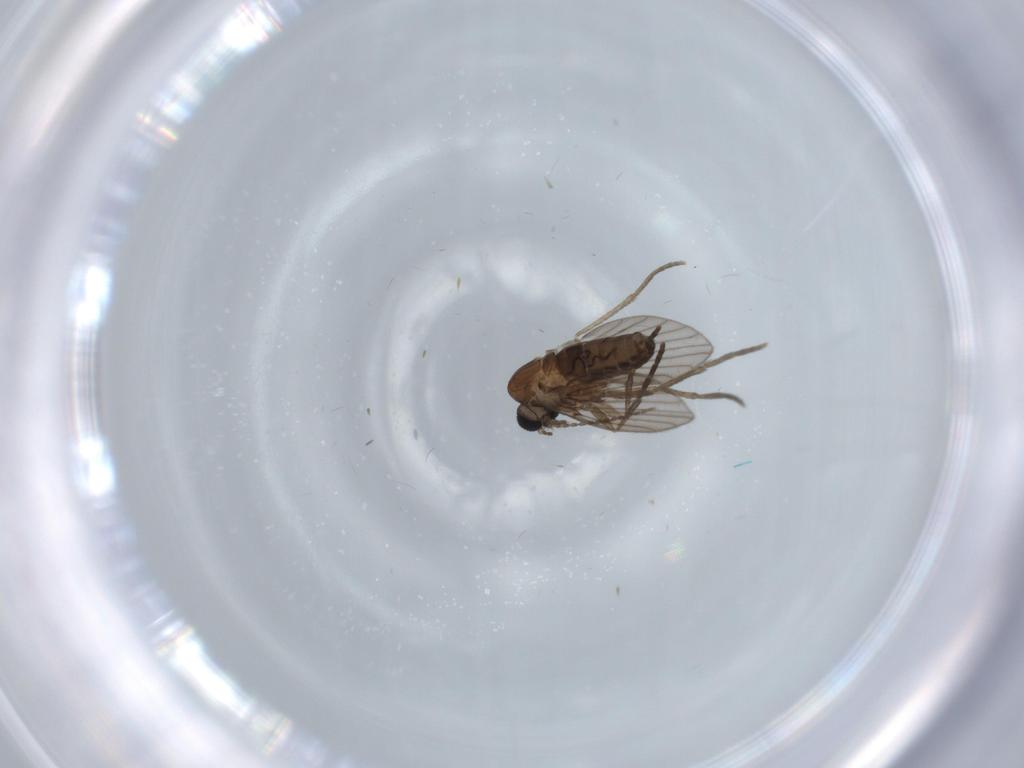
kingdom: Animalia
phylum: Arthropoda
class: Insecta
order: Diptera
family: Psychodidae
